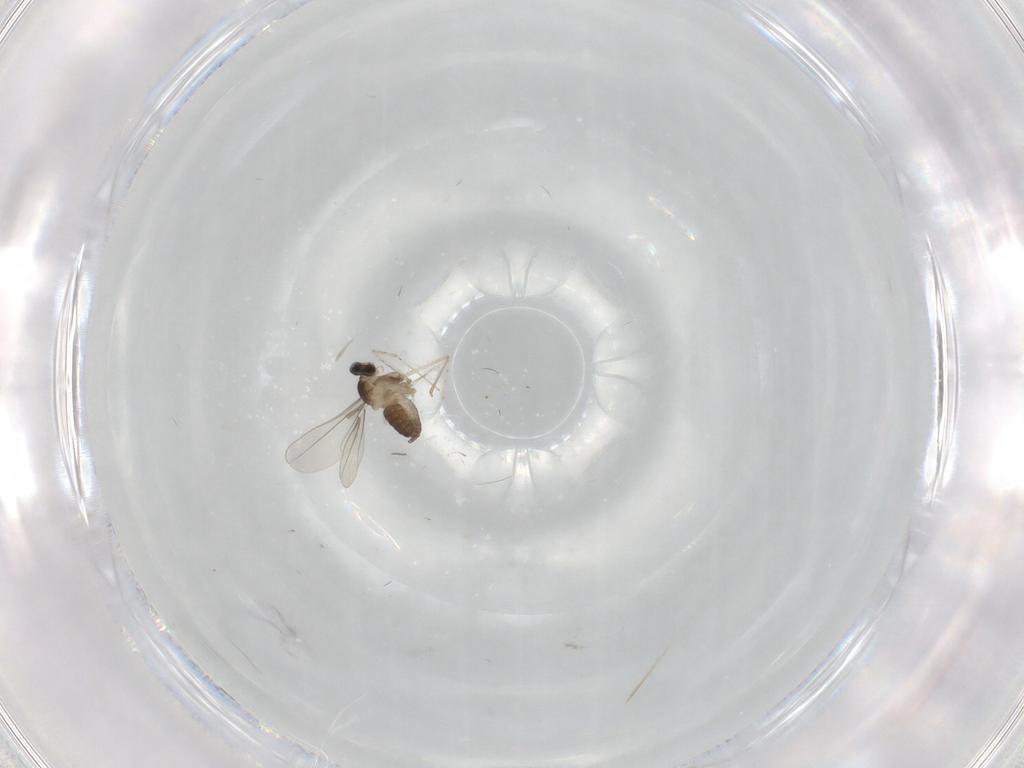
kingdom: Animalia
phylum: Arthropoda
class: Insecta
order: Diptera
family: Cecidomyiidae
